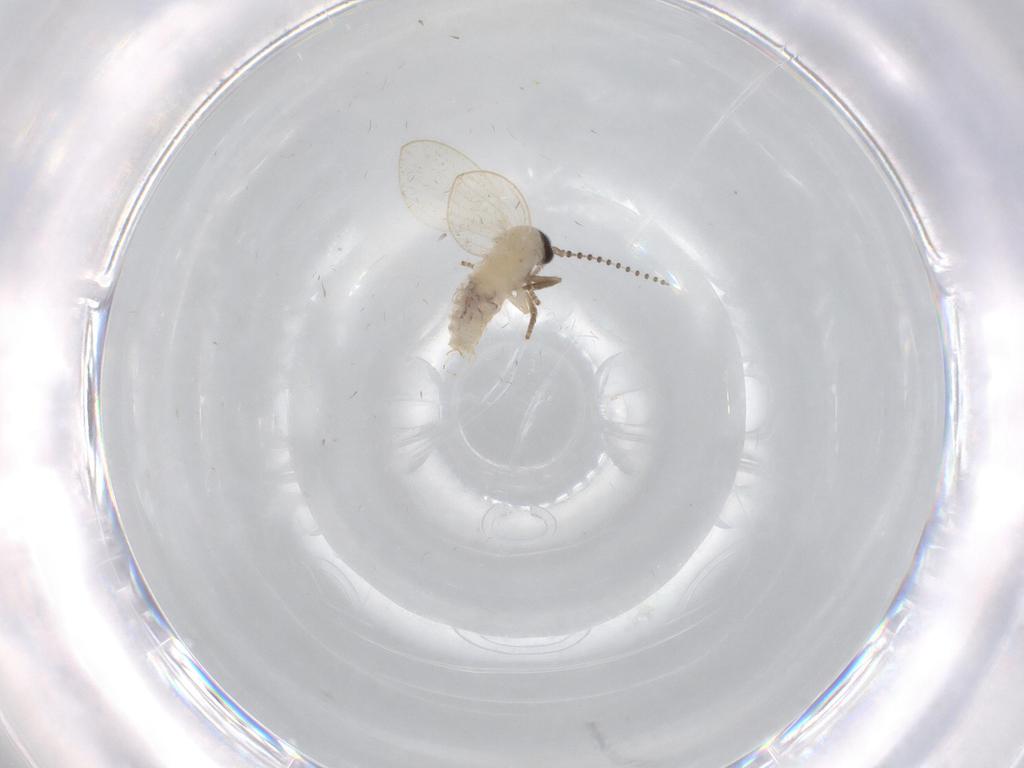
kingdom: Animalia
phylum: Arthropoda
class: Insecta
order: Diptera
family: Psychodidae
